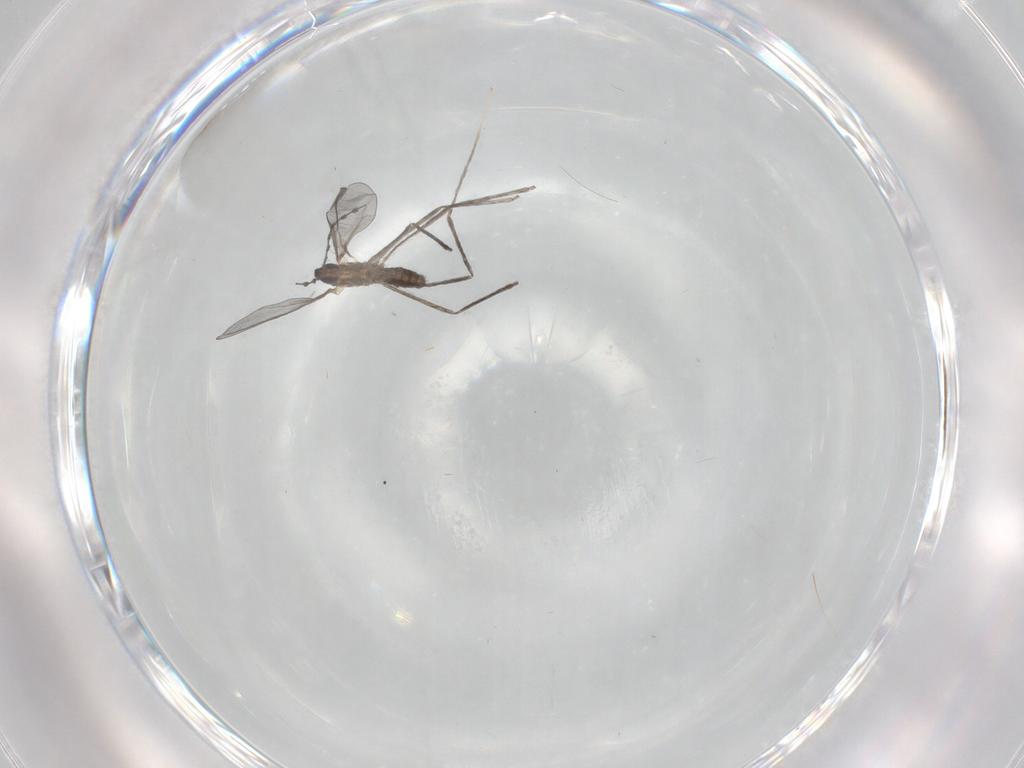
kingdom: Animalia
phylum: Arthropoda
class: Insecta
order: Diptera
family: Cecidomyiidae
